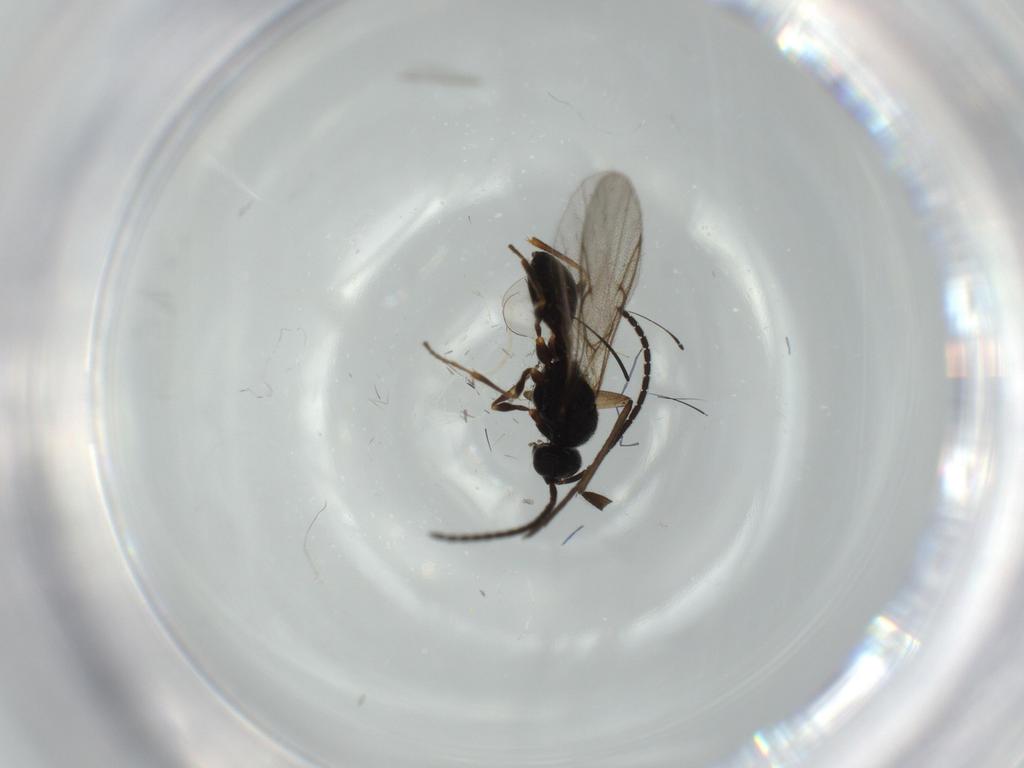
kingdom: Animalia
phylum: Arthropoda
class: Insecta
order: Hymenoptera
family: Diapriidae
